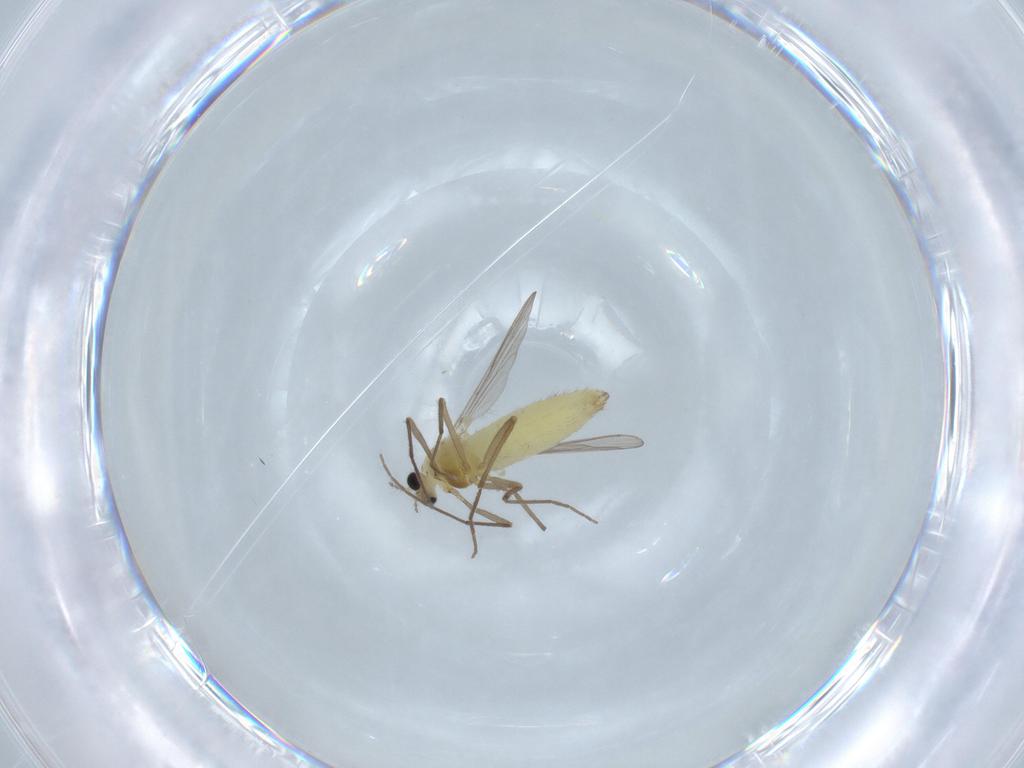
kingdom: Animalia
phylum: Arthropoda
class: Insecta
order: Diptera
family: Chironomidae
